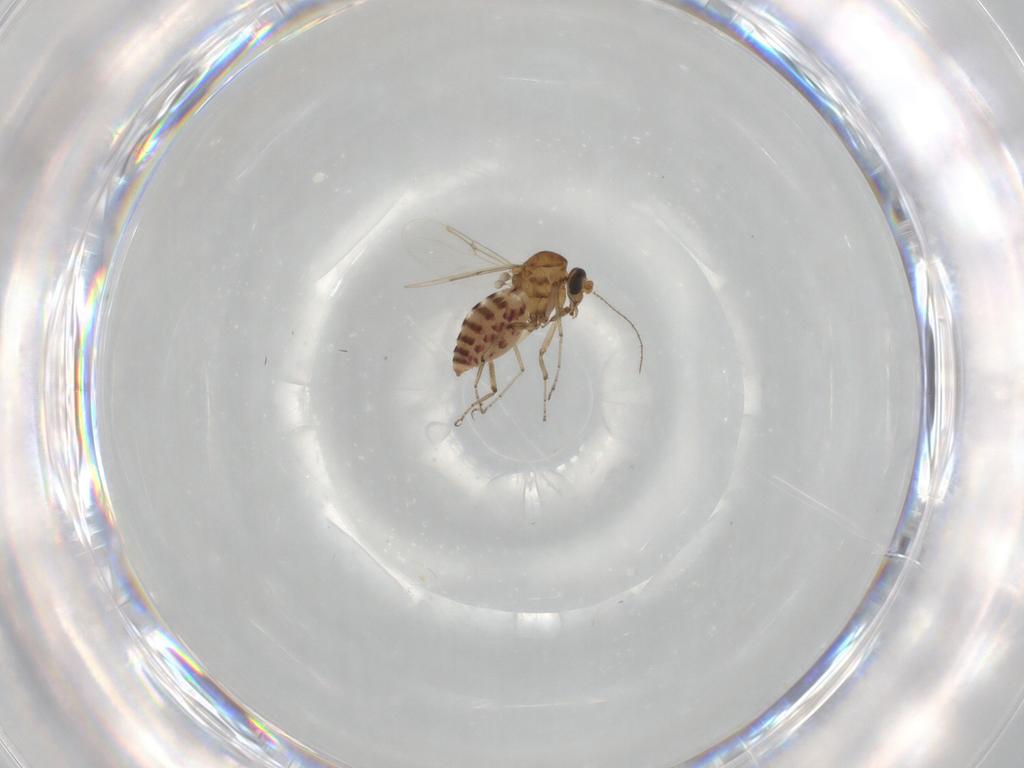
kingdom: Animalia
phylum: Arthropoda
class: Insecta
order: Diptera
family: Ceratopogonidae
